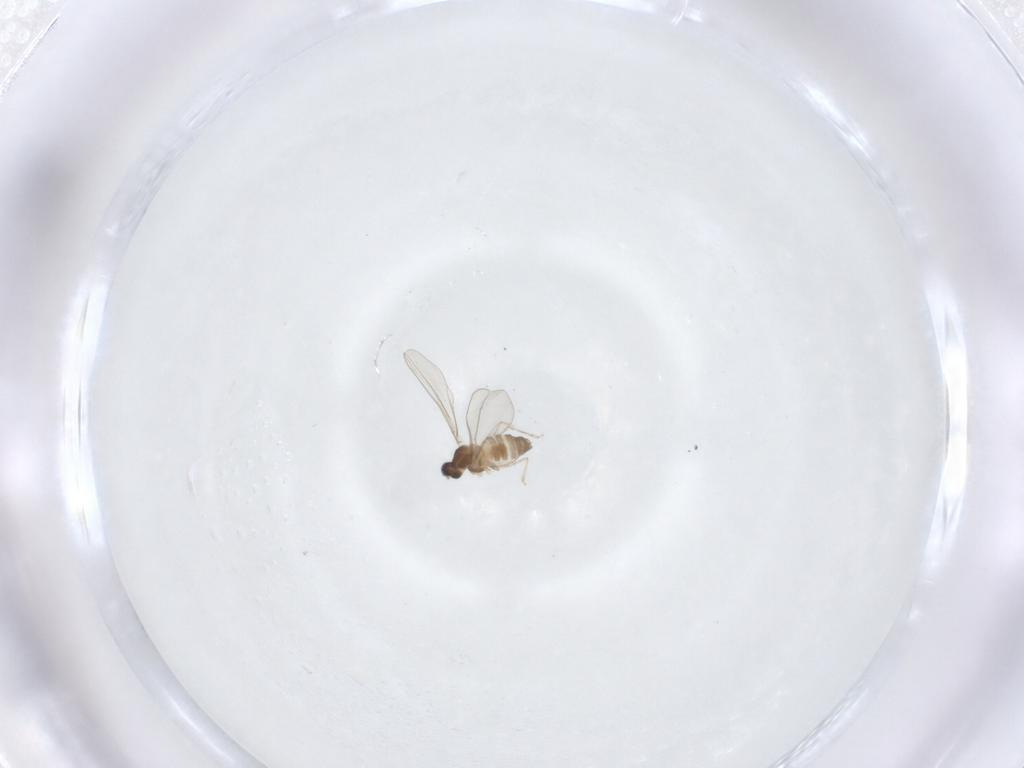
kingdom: Animalia
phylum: Arthropoda
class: Insecta
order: Diptera
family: Cecidomyiidae
